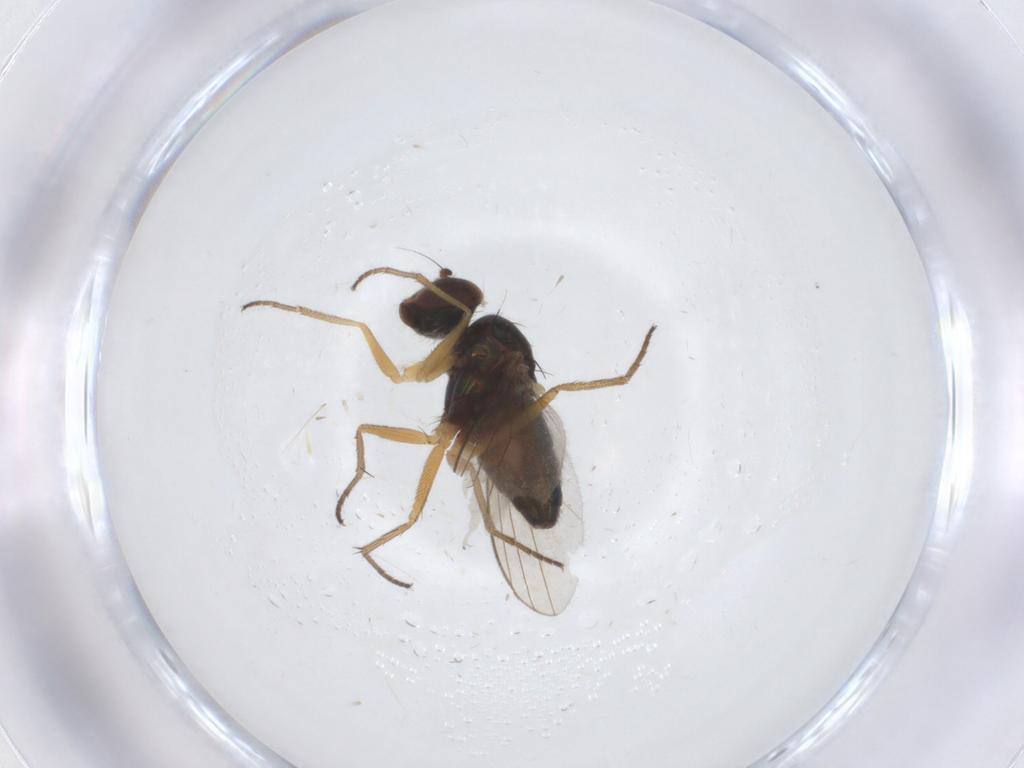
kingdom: Animalia
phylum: Arthropoda
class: Insecta
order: Diptera
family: Sphaeroceridae
